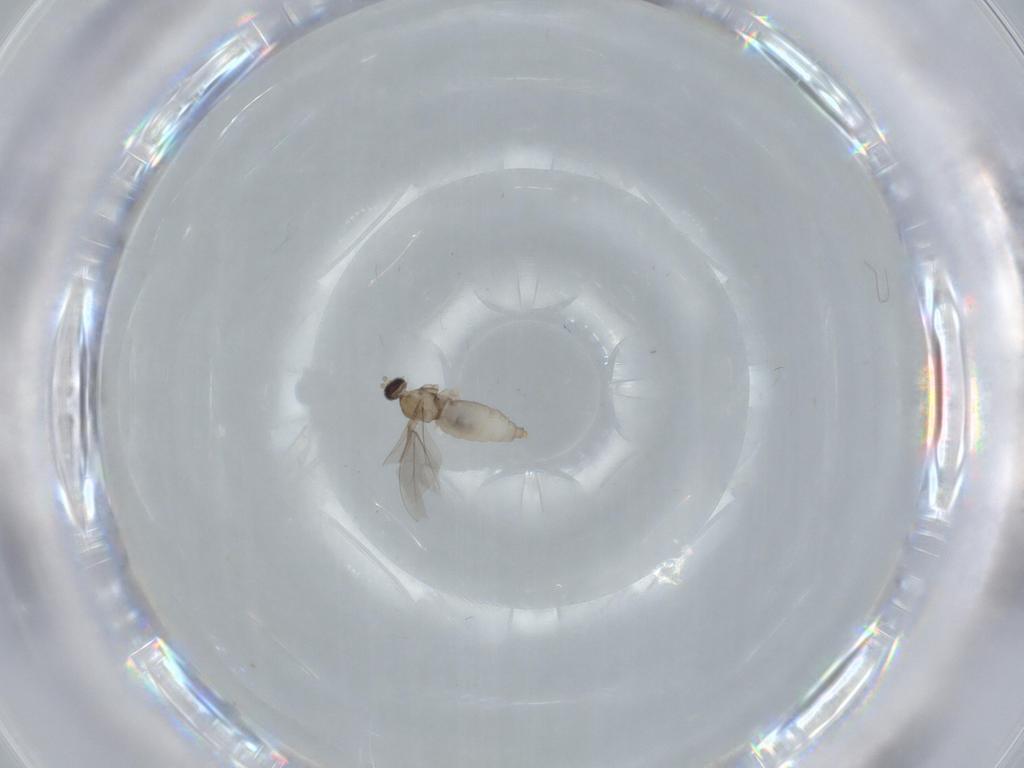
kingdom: Animalia
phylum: Arthropoda
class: Insecta
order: Diptera
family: Cecidomyiidae
